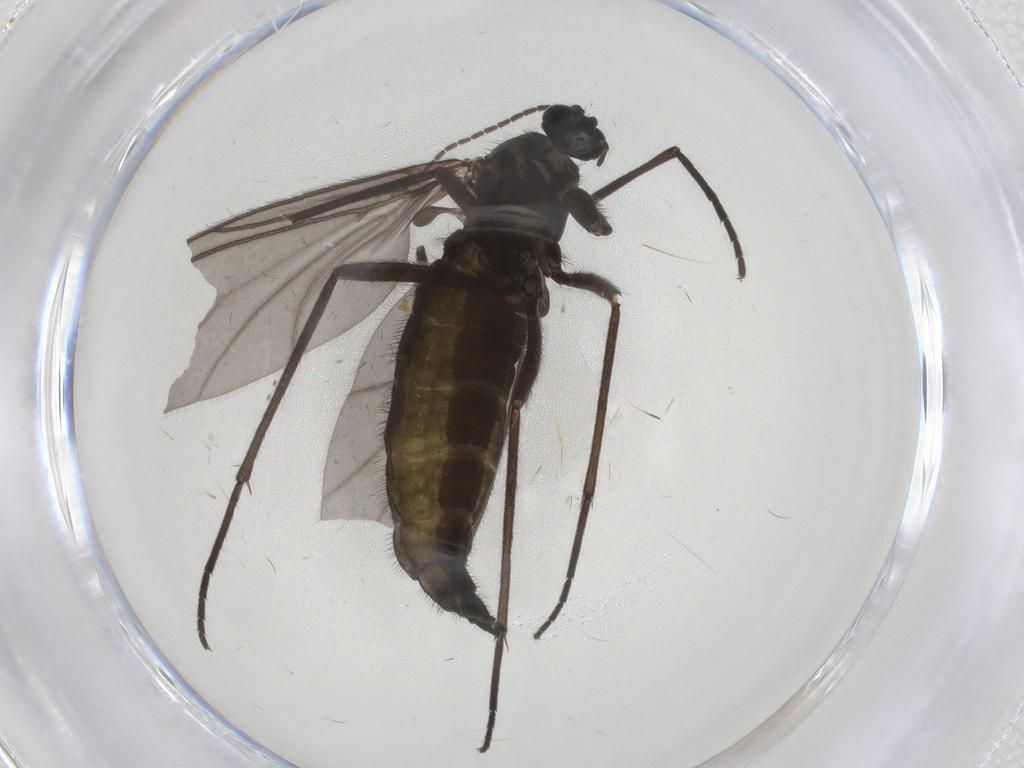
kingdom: Animalia
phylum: Arthropoda
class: Insecta
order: Diptera
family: Sciaridae
